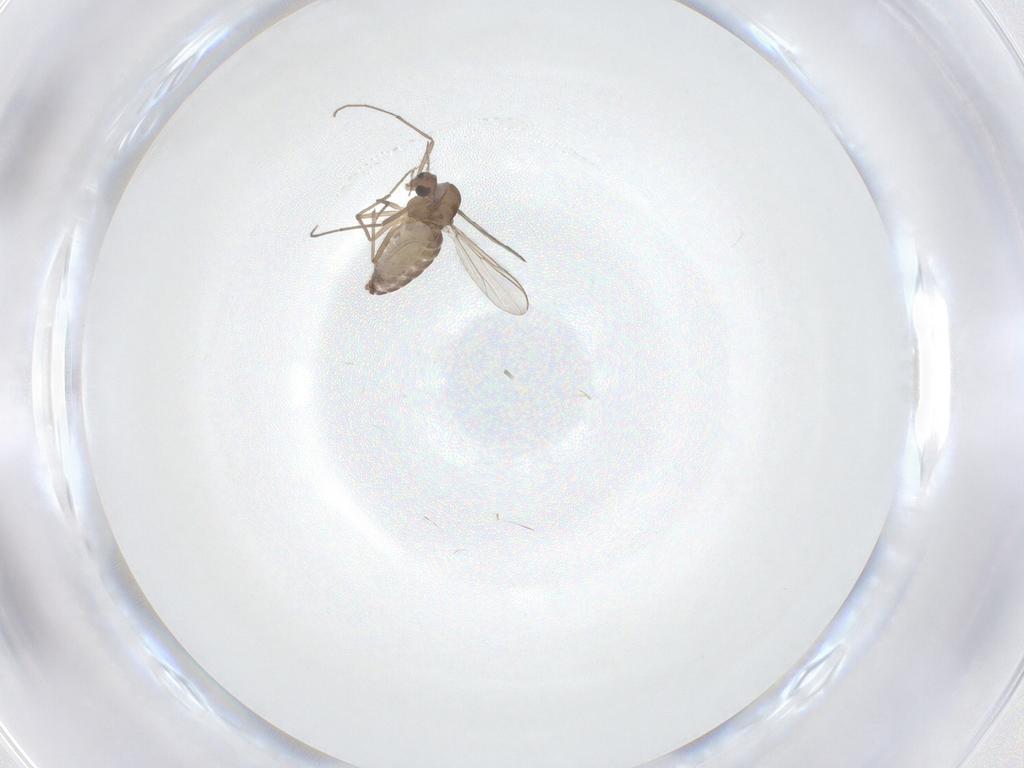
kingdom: Animalia
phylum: Arthropoda
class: Insecta
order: Diptera
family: Chironomidae
